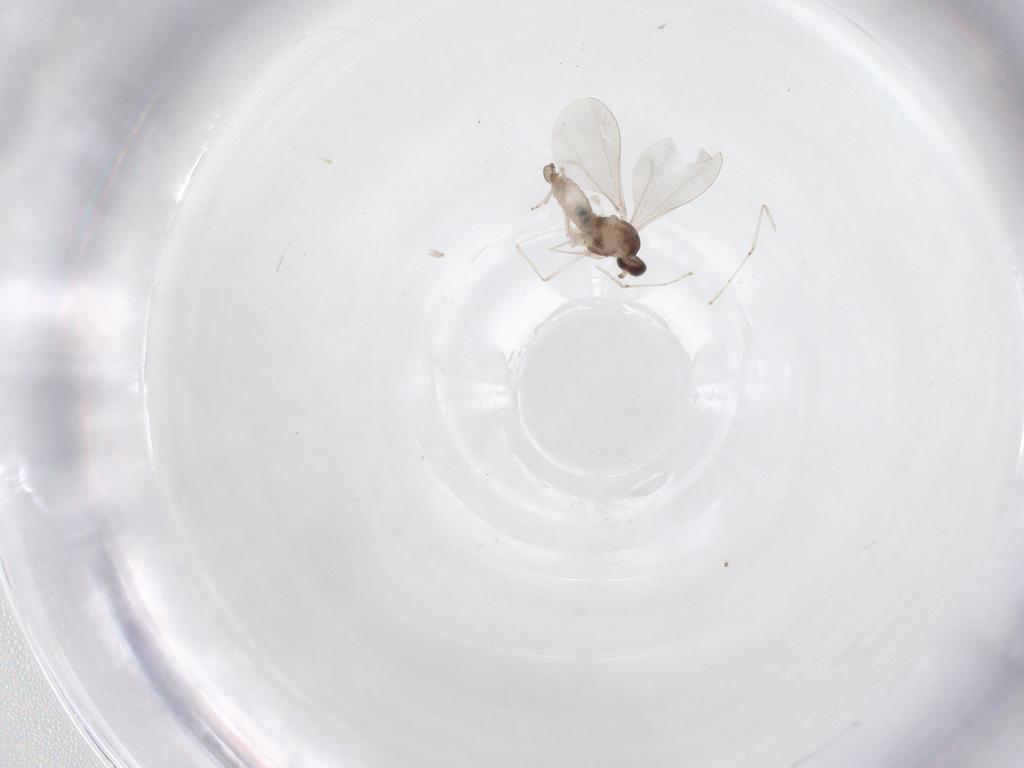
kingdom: Animalia
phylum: Arthropoda
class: Insecta
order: Diptera
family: Cecidomyiidae
